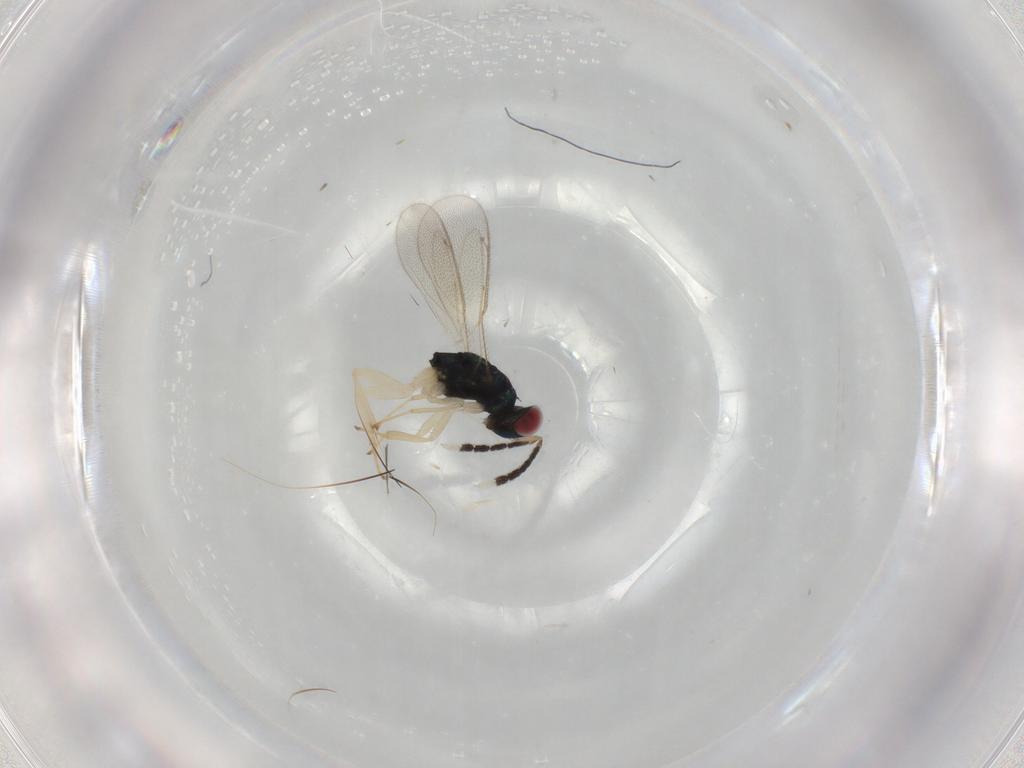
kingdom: Animalia
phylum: Arthropoda
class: Insecta
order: Hymenoptera
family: Eulophidae
